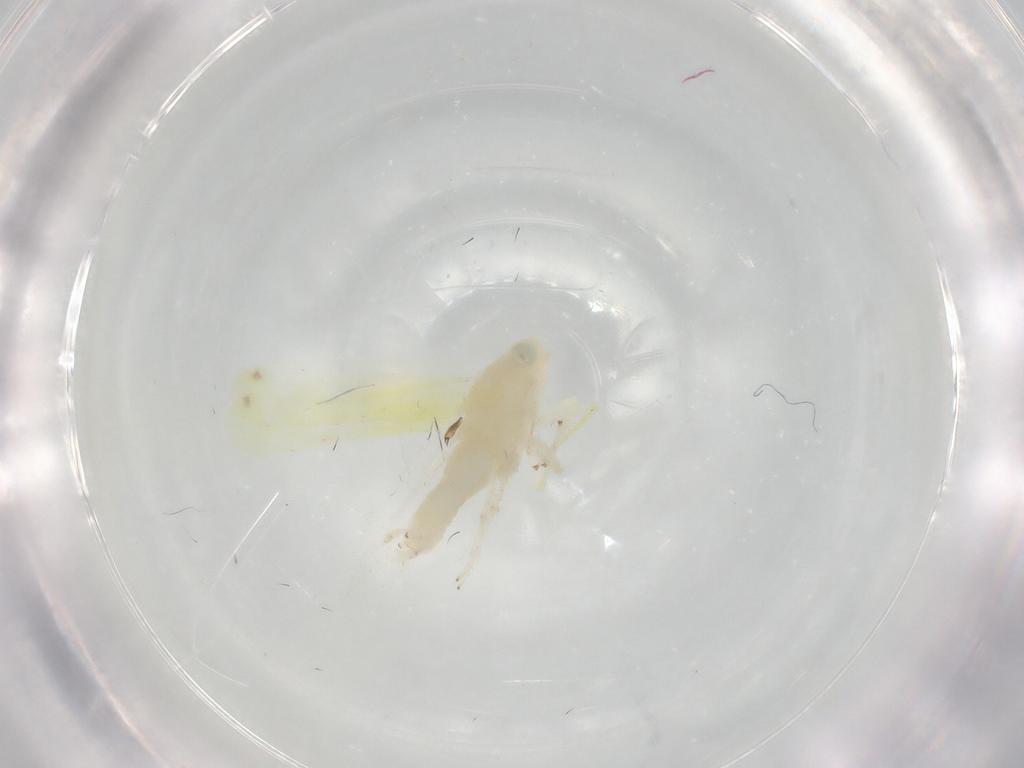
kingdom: Animalia
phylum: Arthropoda
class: Insecta
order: Hemiptera
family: Cicadellidae
